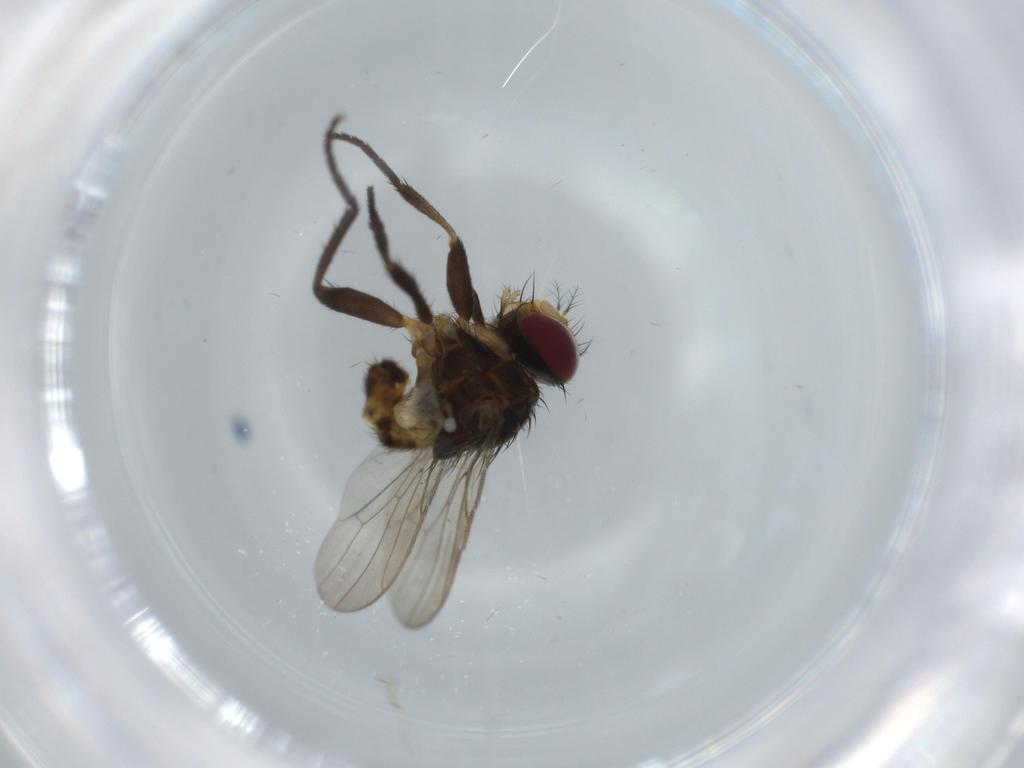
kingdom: Animalia
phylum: Arthropoda
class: Insecta
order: Diptera
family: Anthomyiidae
